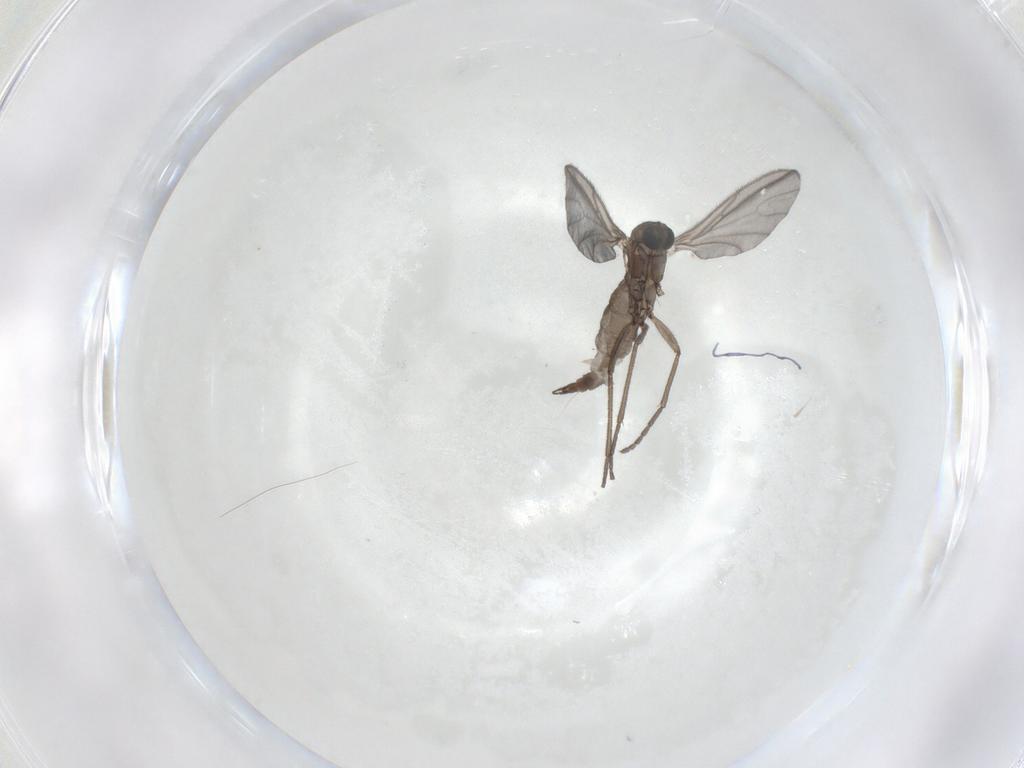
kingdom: Animalia
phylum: Arthropoda
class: Insecta
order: Diptera
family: Sciaridae
